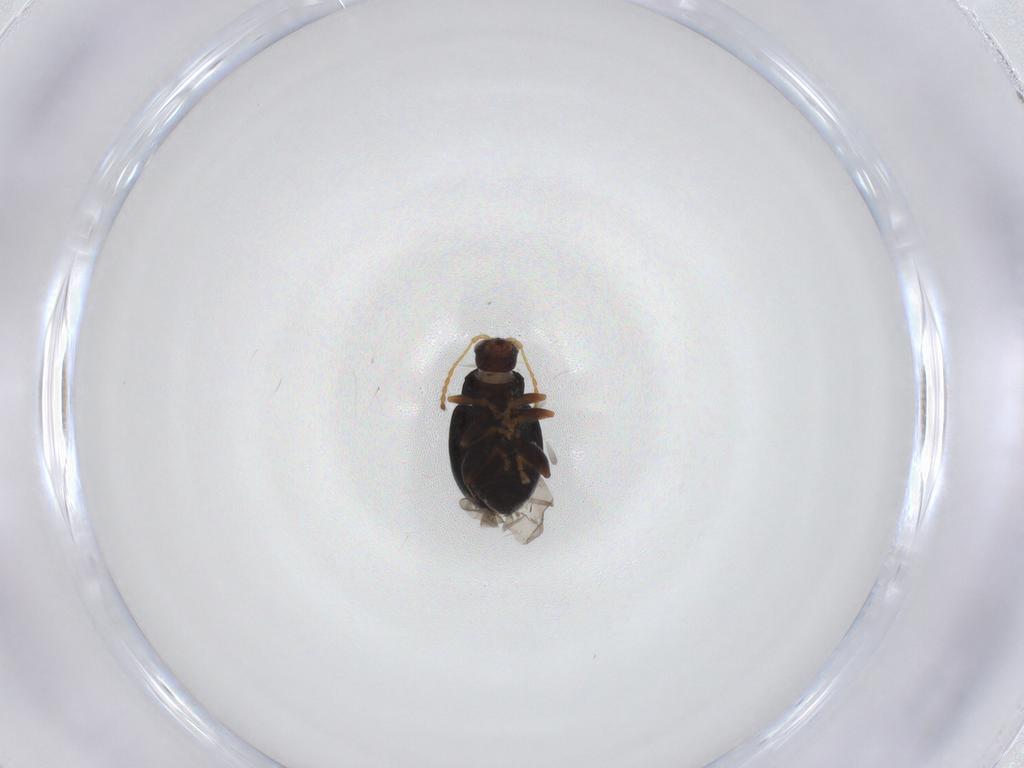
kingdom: Animalia
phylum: Arthropoda
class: Insecta
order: Coleoptera
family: Chrysomelidae
